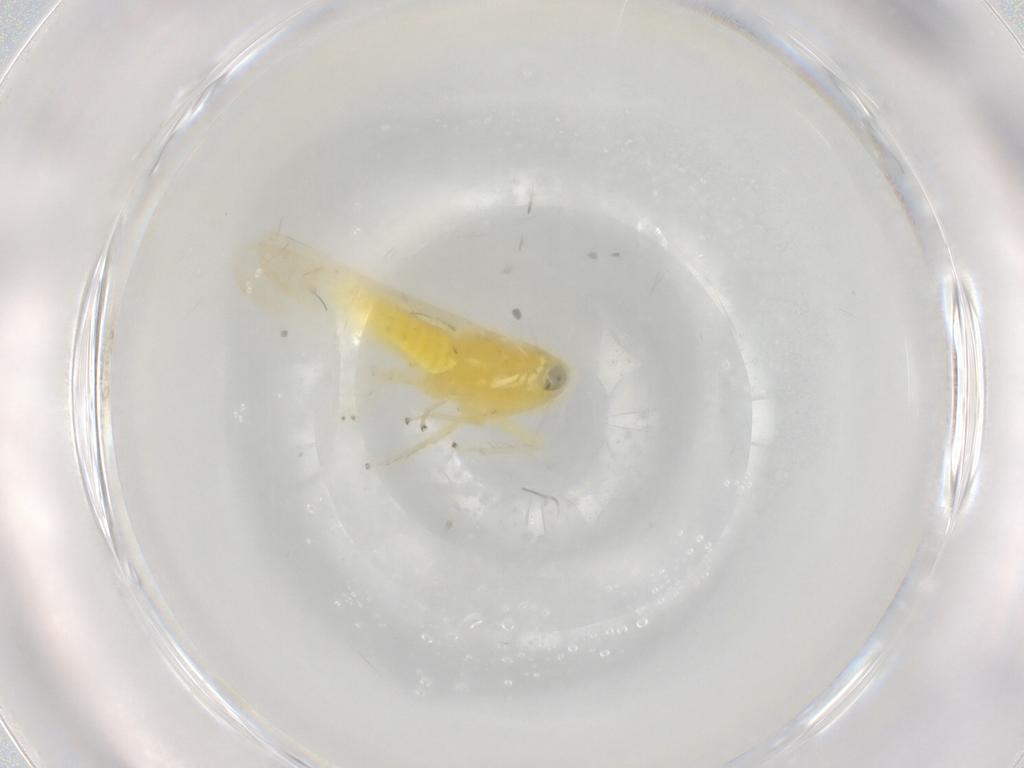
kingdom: Animalia
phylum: Arthropoda
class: Insecta
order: Hemiptera
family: Cicadellidae
